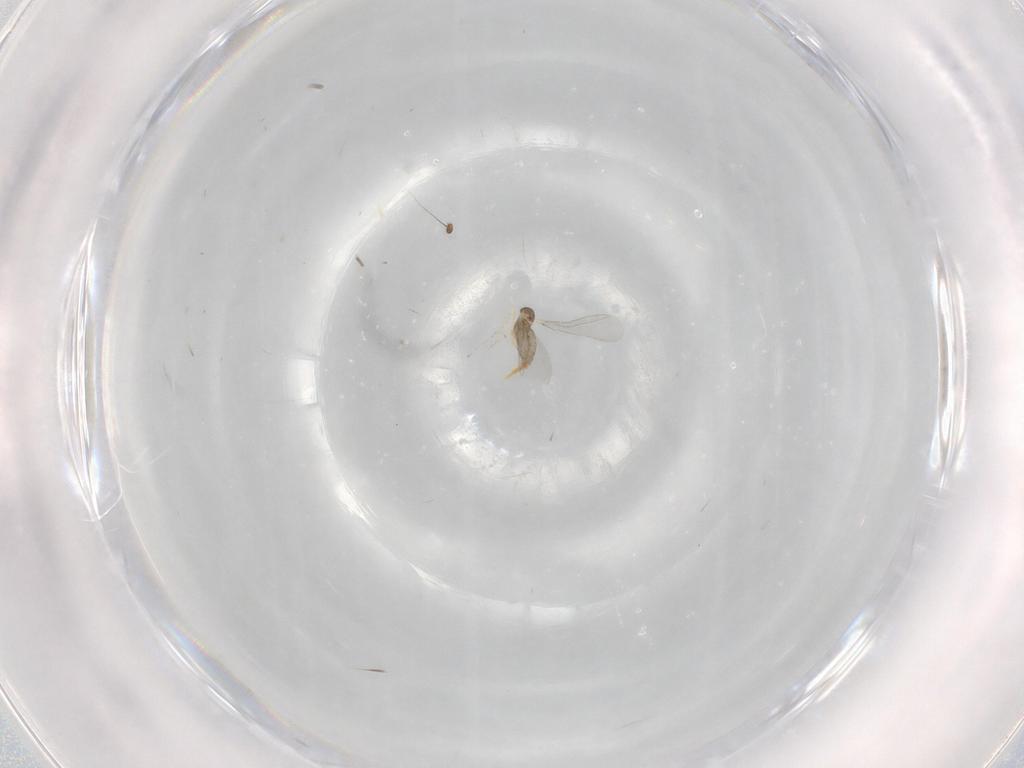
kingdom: Animalia
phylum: Arthropoda
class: Insecta
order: Diptera
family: Cecidomyiidae
